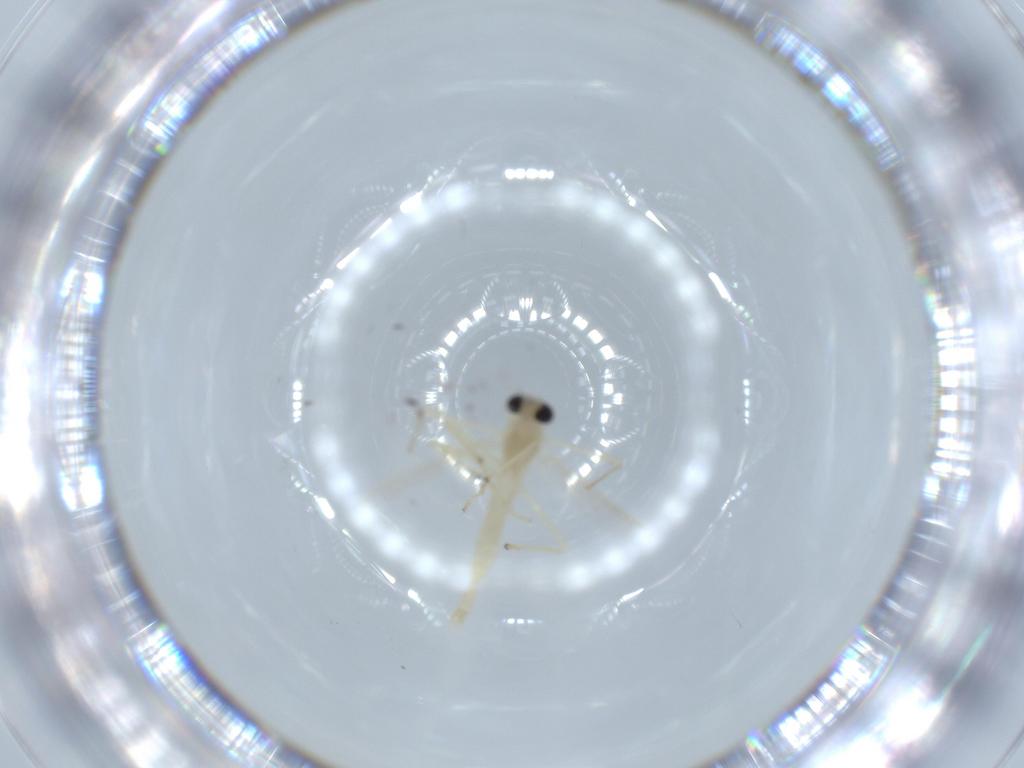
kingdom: Animalia
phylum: Arthropoda
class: Insecta
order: Diptera
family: Chironomidae
